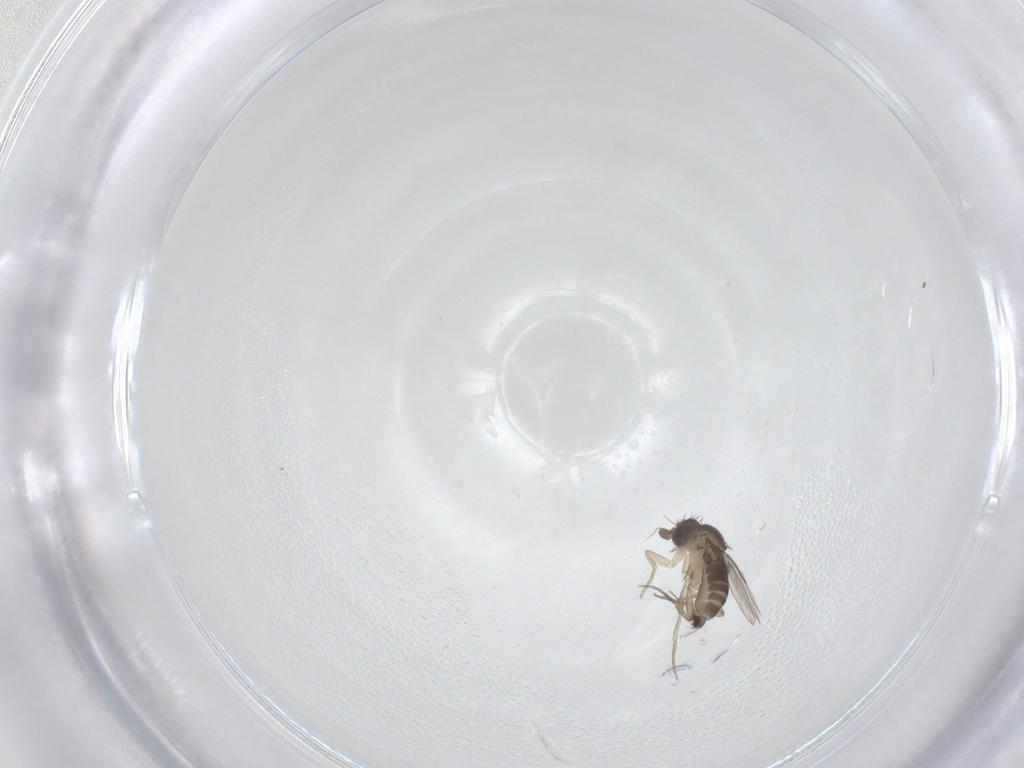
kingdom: Animalia
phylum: Arthropoda
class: Insecta
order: Diptera
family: Phoridae
